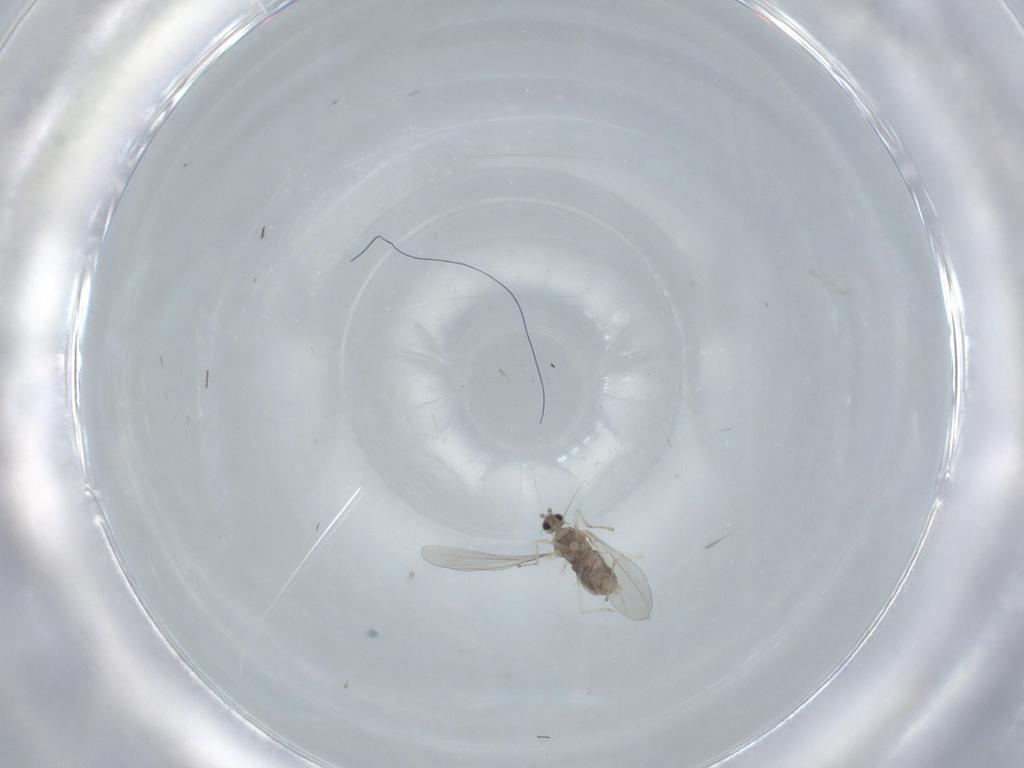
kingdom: Animalia
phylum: Arthropoda
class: Insecta
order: Diptera
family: Cecidomyiidae
